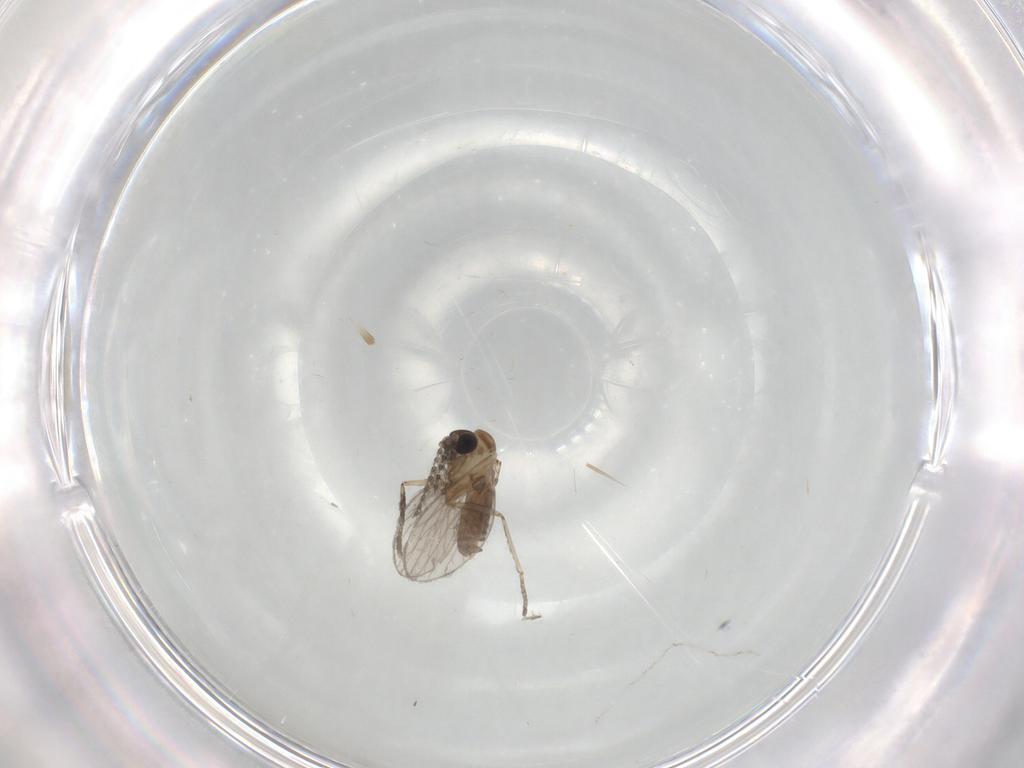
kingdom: Animalia
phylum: Arthropoda
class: Insecta
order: Diptera
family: Psychodidae
